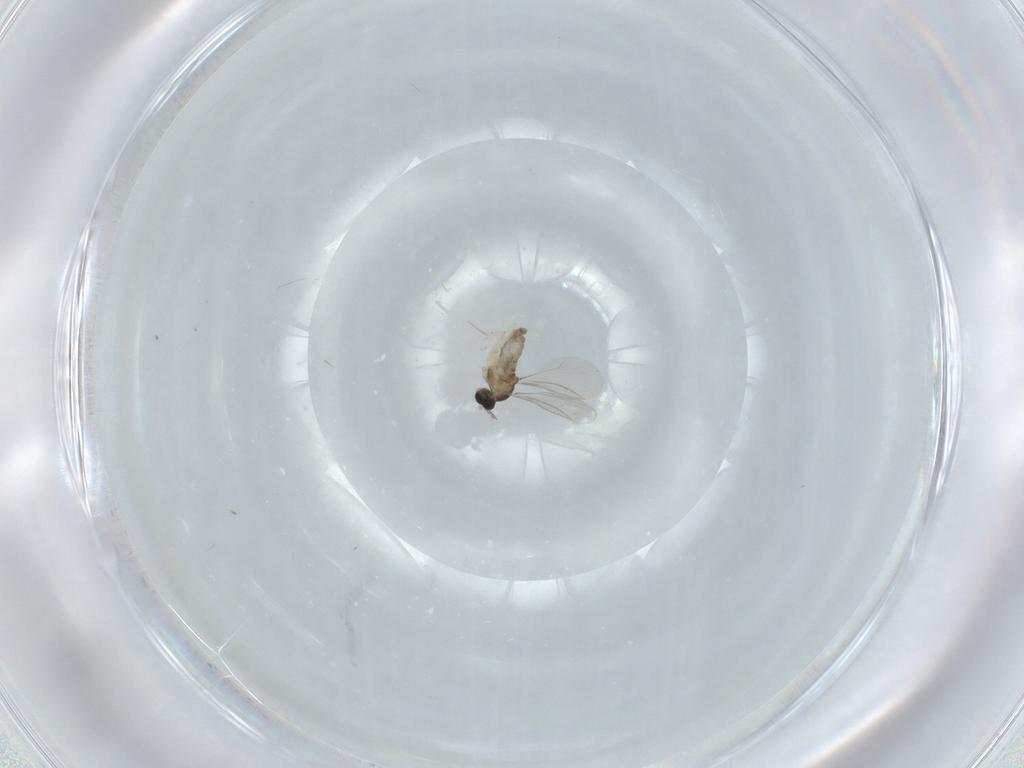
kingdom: Animalia
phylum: Arthropoda
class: Insecta
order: Diptera
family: Cecidomyiidae
